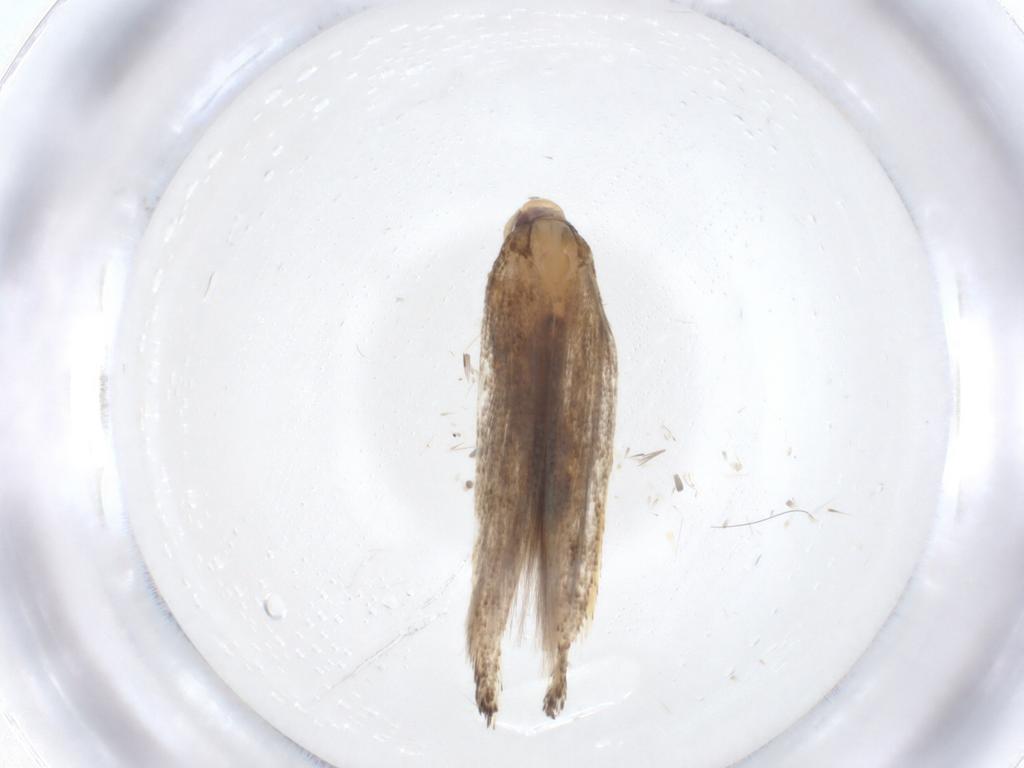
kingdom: Animalia
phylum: Arthropoda
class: Insecta
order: Lepidoptera
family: Cosmopterigidae
